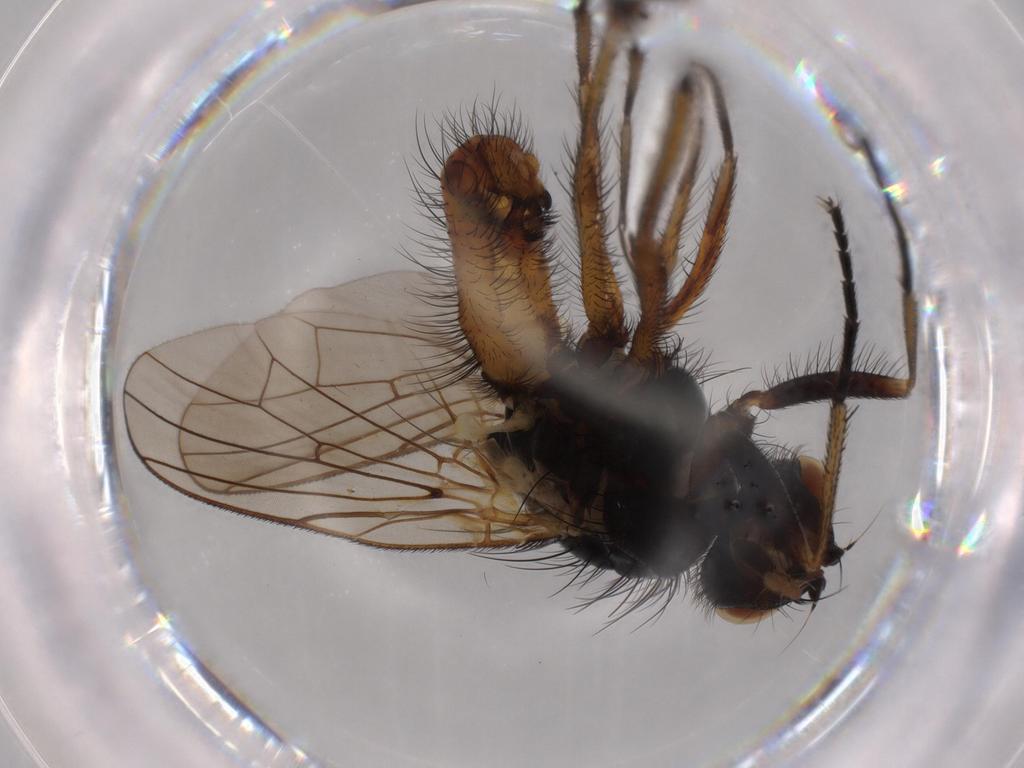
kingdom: Animalia
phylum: Arthropoda
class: Insecta
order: Diptera
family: Anthomyiidae
